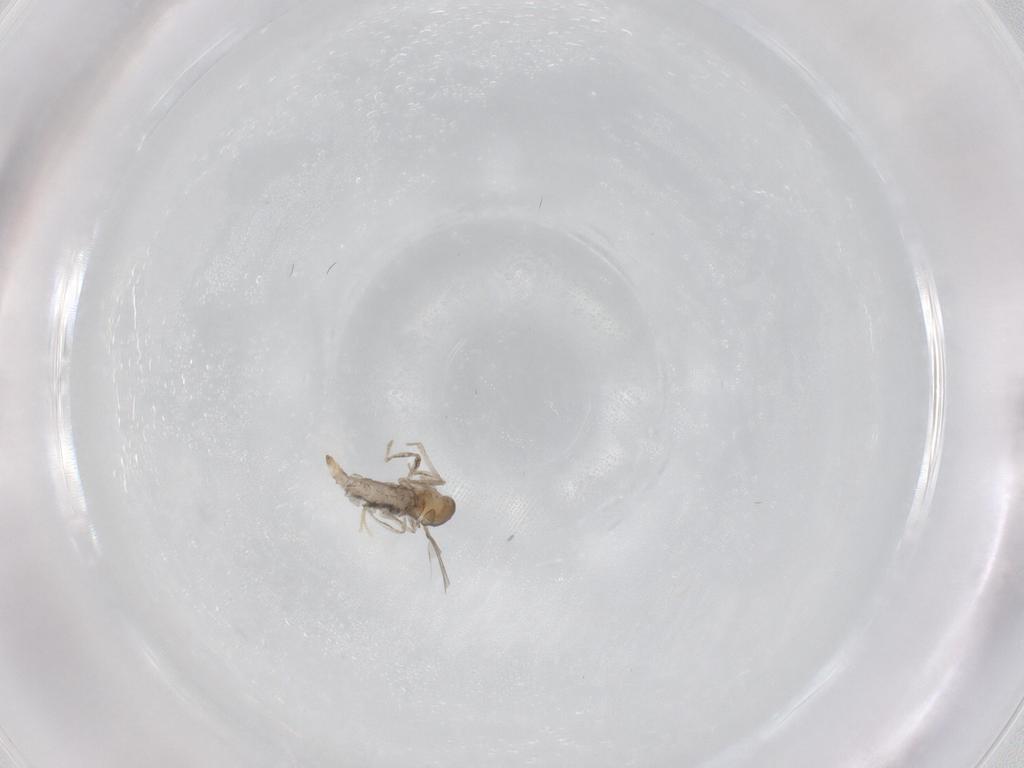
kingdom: Animalia
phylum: Arthropoda
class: Insecta
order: Diptera
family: Cecidomyiidae
